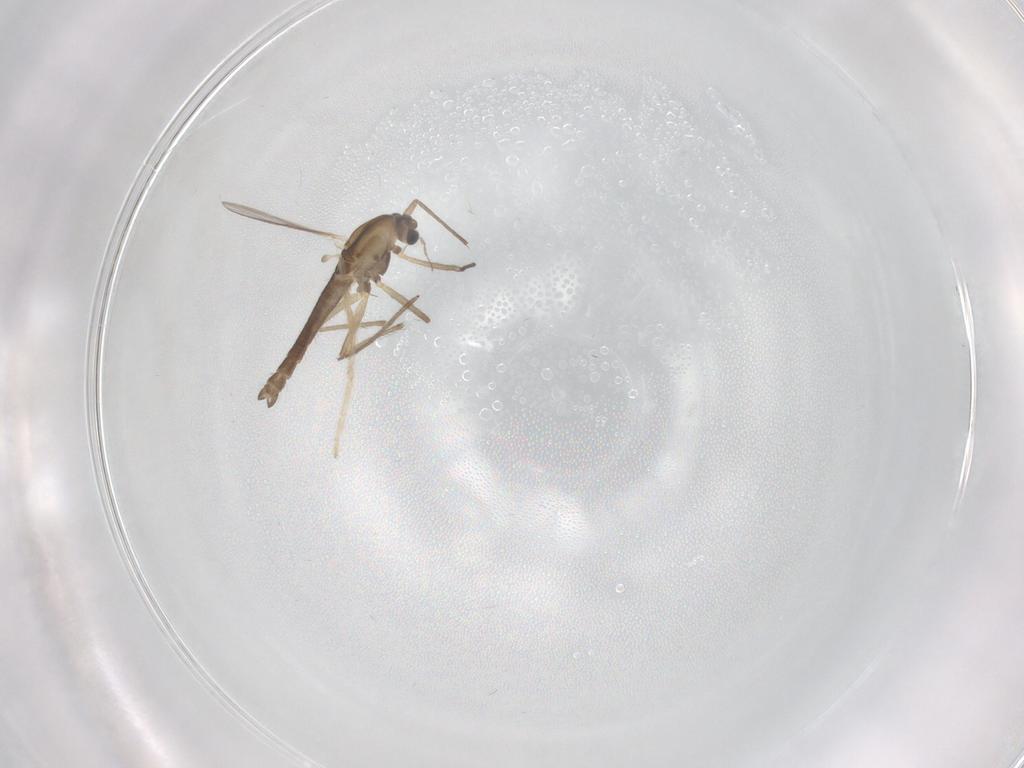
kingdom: Animalia
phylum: Arthropoda
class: Insecta
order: Diptera
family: Chironomidae
